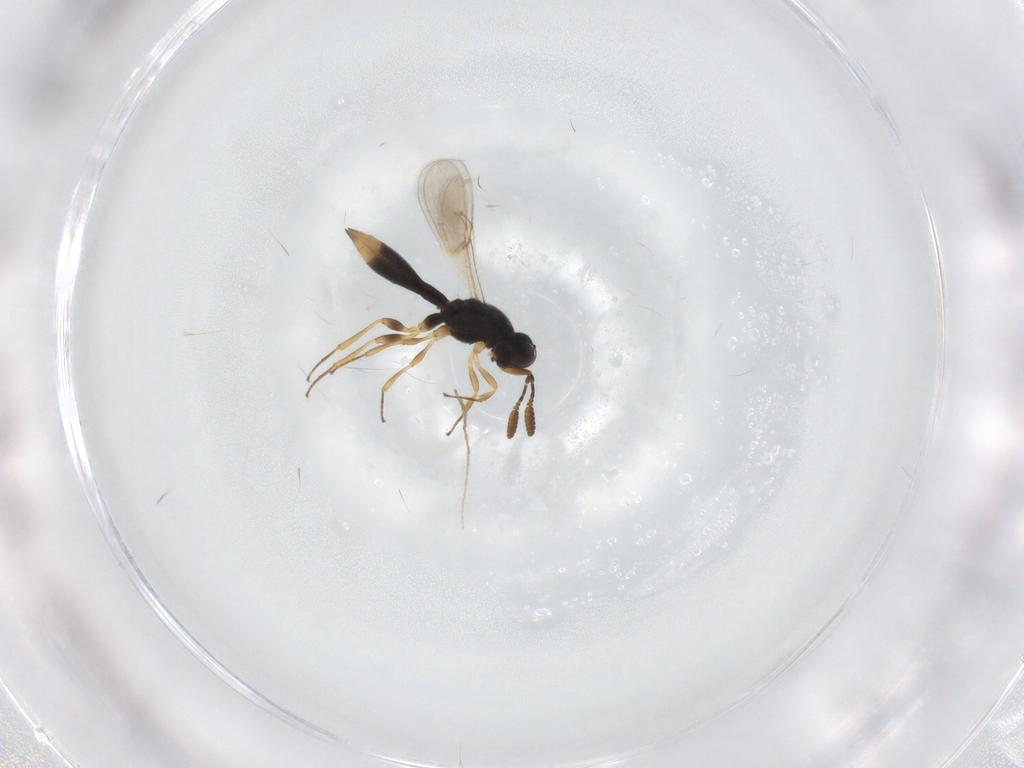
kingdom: Animalia
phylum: Arthropoda
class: Insecta
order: Hymenoptera
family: Scelionidae
